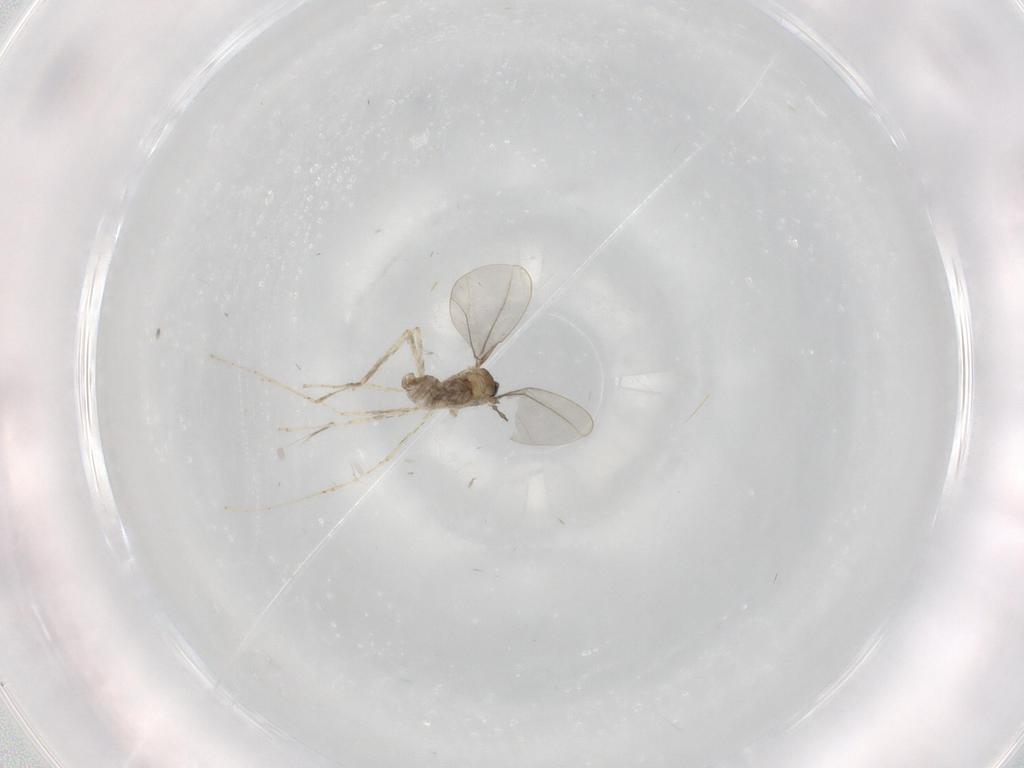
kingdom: Animalia
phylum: Arthropoda
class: Insecta
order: Diptera
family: Cecidomyiidae
